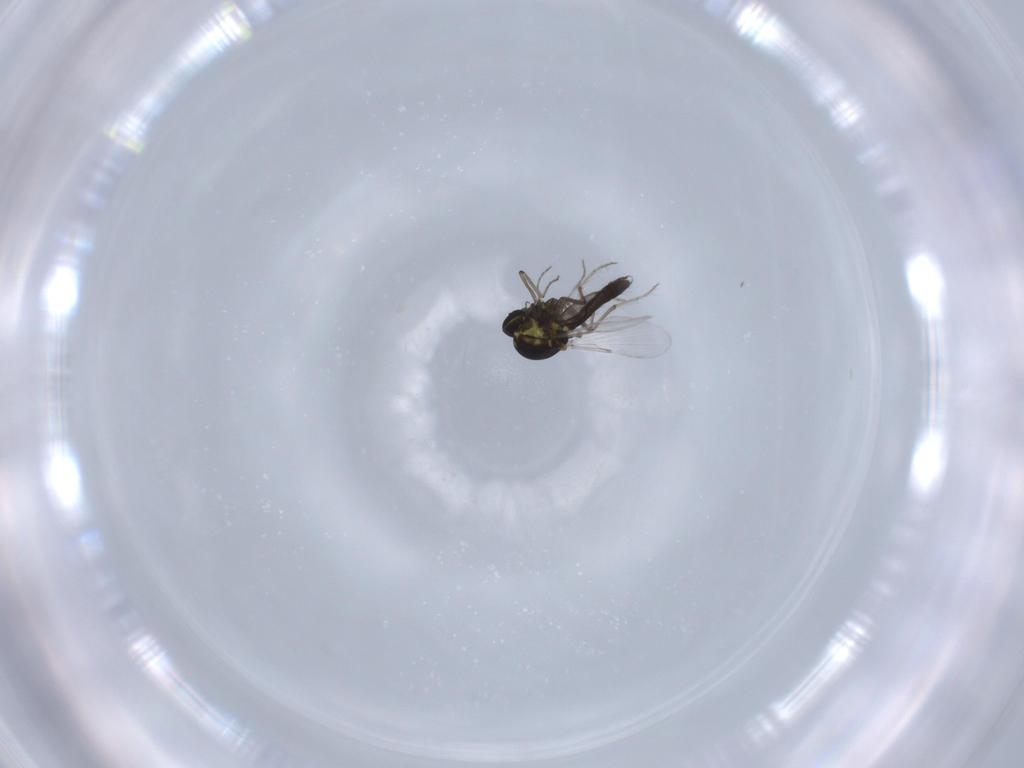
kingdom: Animalia
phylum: Arthropoda
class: Insecta
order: Diptera
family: Ceratopogonidae
